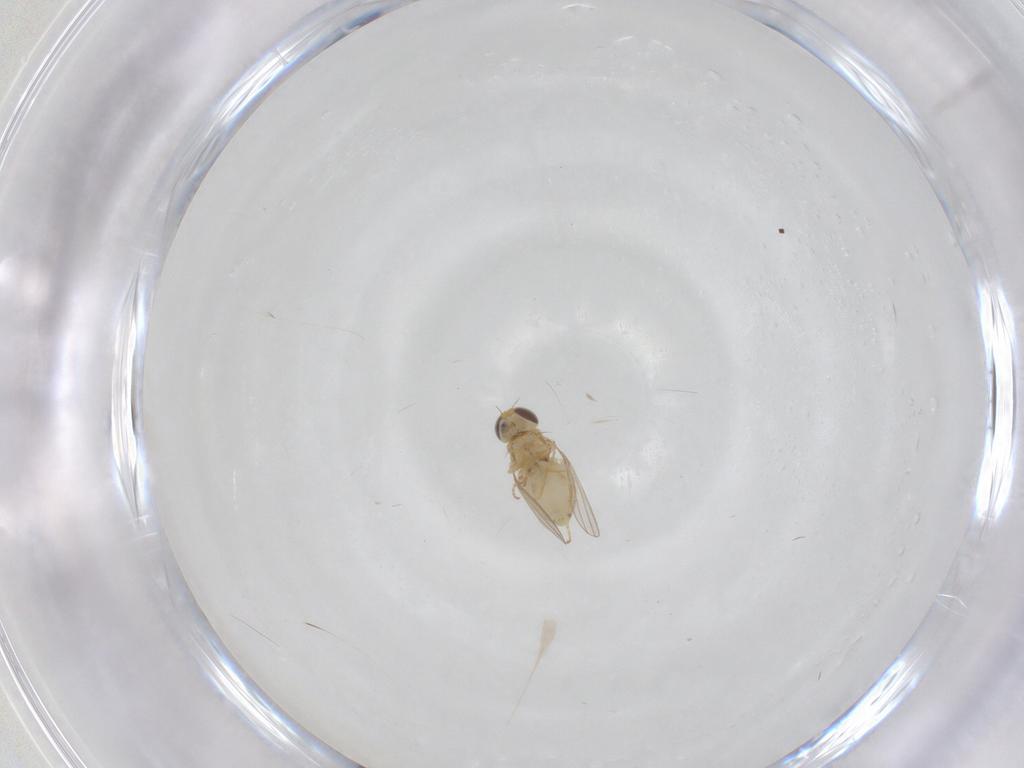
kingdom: Animalia
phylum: Arthropoda
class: Insecta
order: Diptera
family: Chyromyidae
